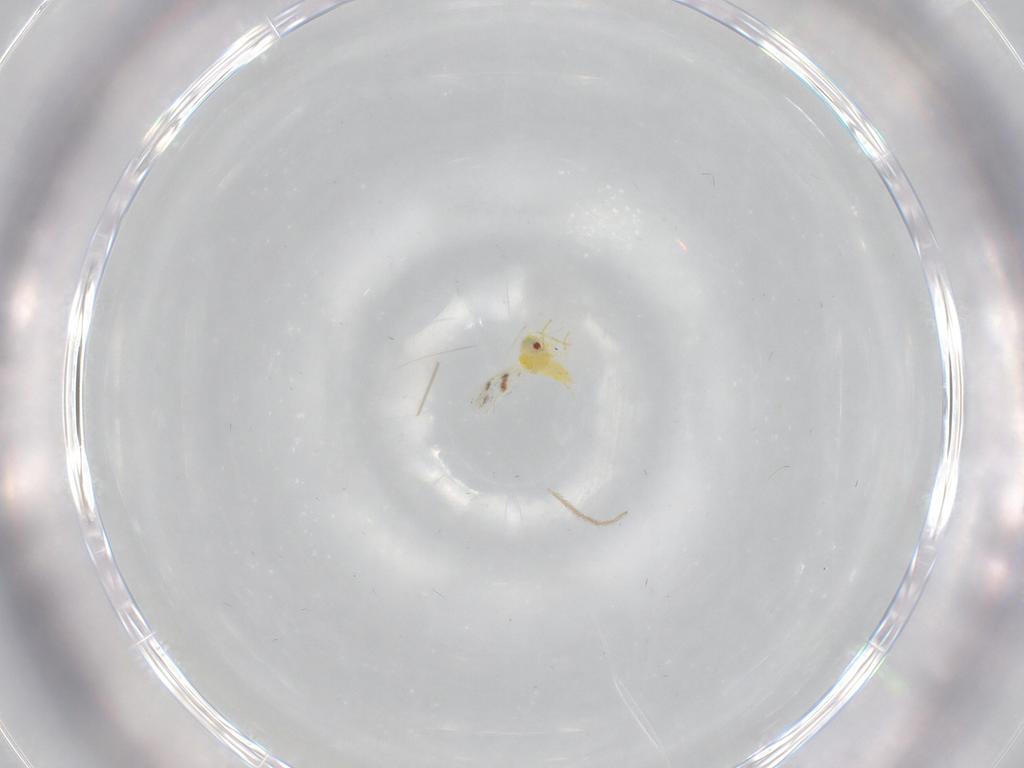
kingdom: Animalia
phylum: Arthropoda
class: Insecta
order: Hemiptera
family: Aleyrodidae
